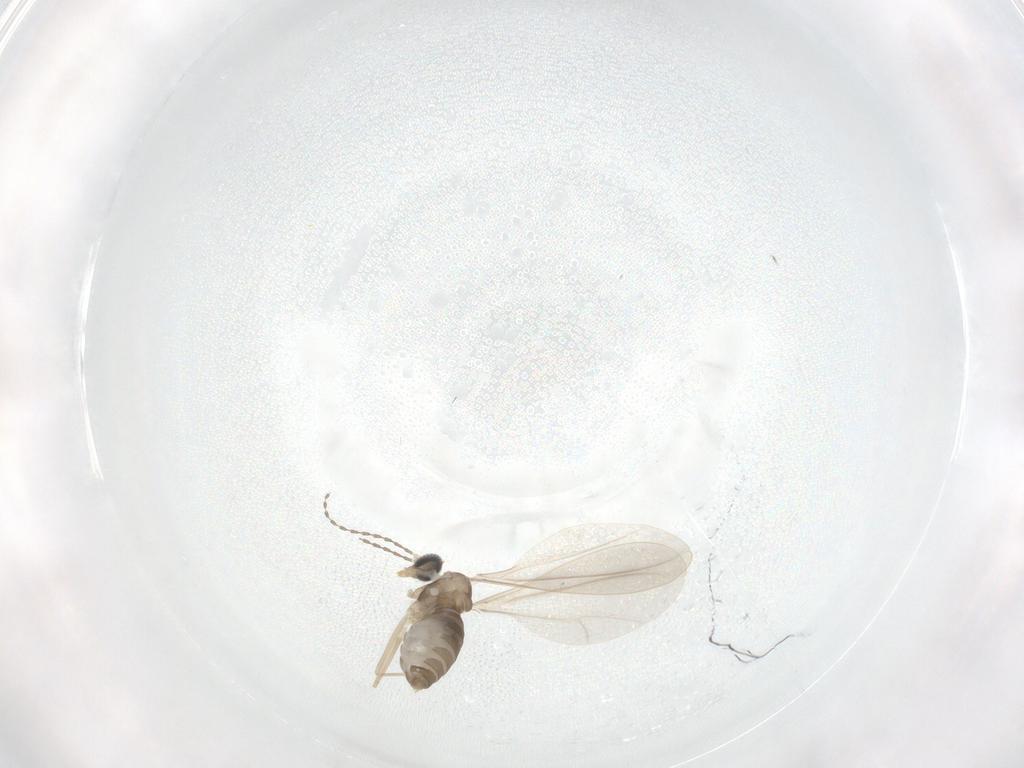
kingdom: Animalia
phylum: Arthropoda
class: Insecta
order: Diptera
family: Cecidomyiidae
